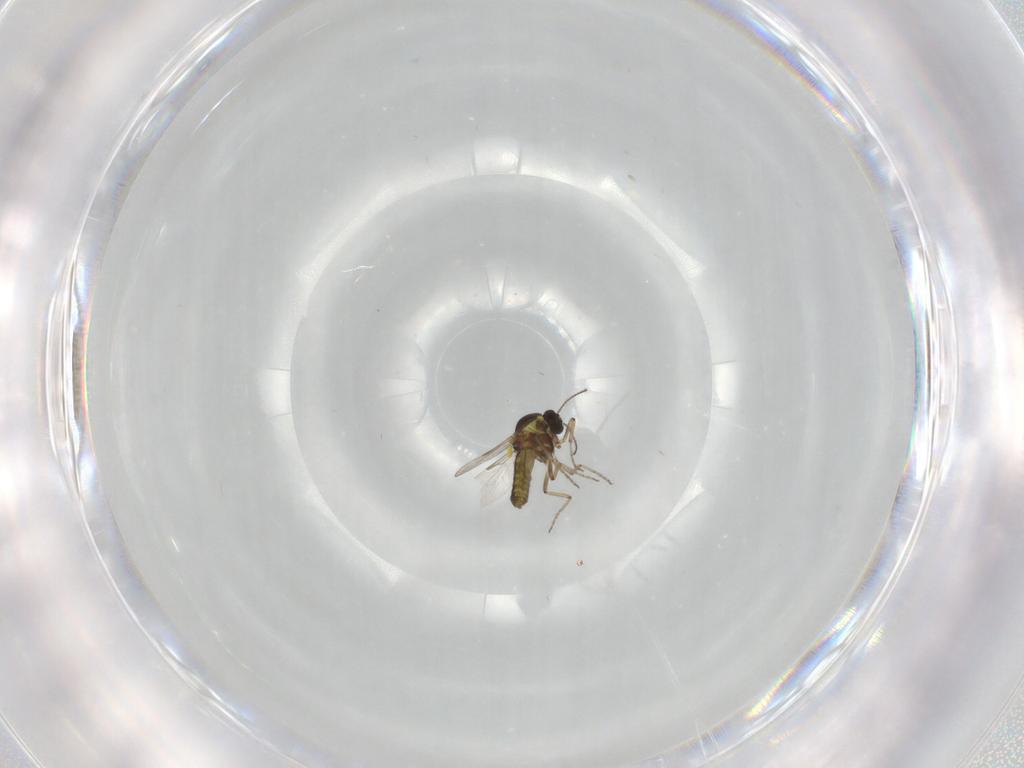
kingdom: Animalia
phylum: Arthropoda
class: Insecta
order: Diptera
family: Ceratopogonidae
